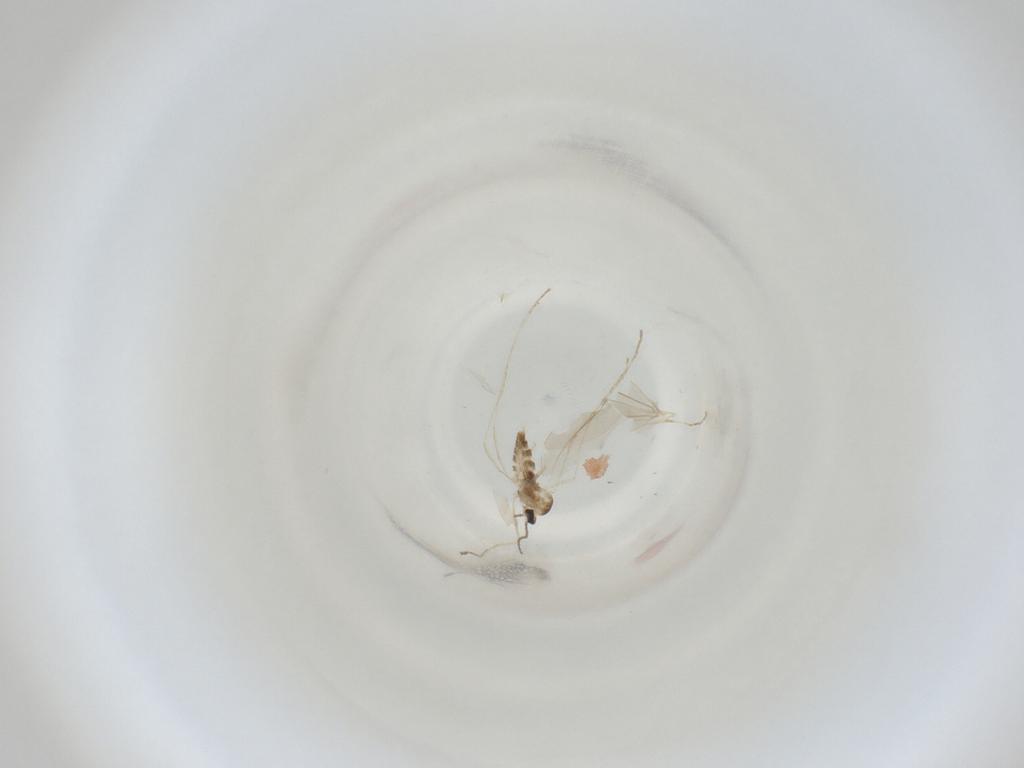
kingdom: Animalia
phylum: Arthropoda
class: Insecta
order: Diptera
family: Cecidomyiidae
